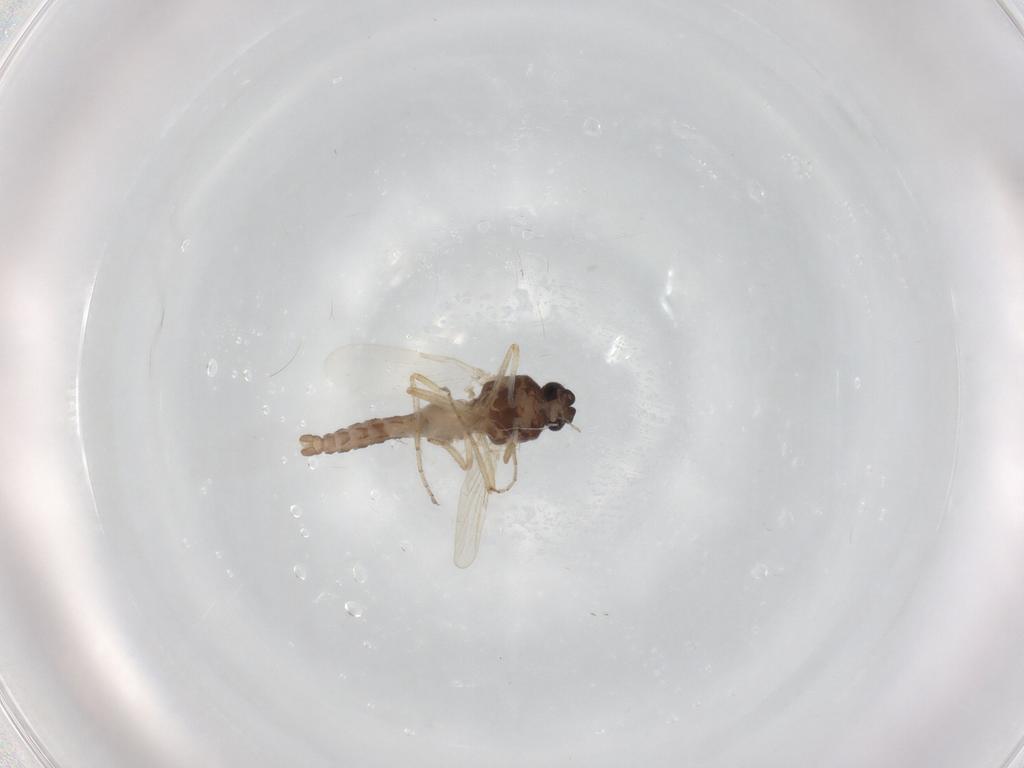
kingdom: Animalia
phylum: Arthropoda
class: Insecta
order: Diptera
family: Ceratopogonidae
